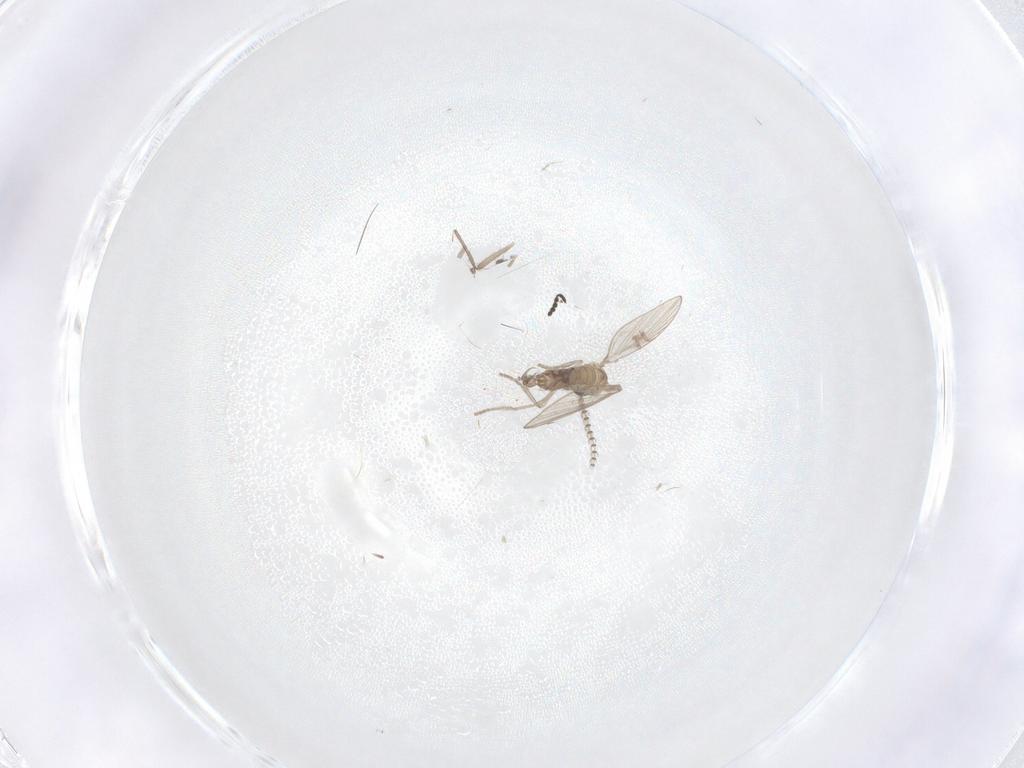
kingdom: Animalia
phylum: Arthropoda
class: Insecta
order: Diptera
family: Psychodidae
